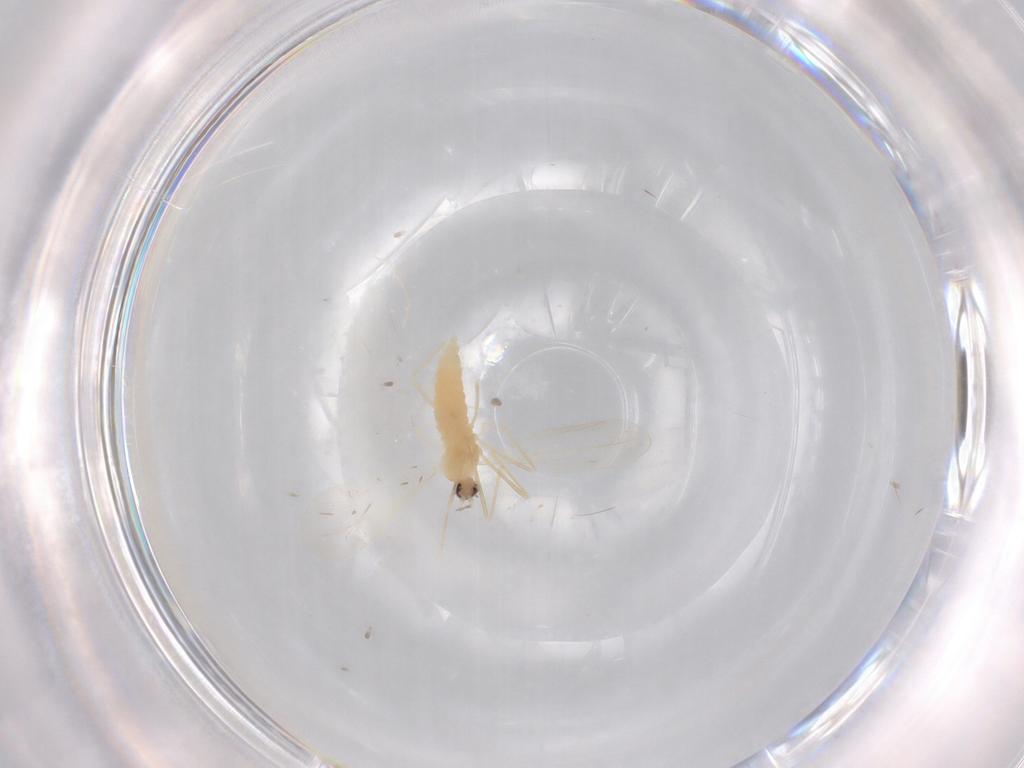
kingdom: Animalia
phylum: Arthropoda
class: Insecta
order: Diptera
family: Cecidomyiidae
